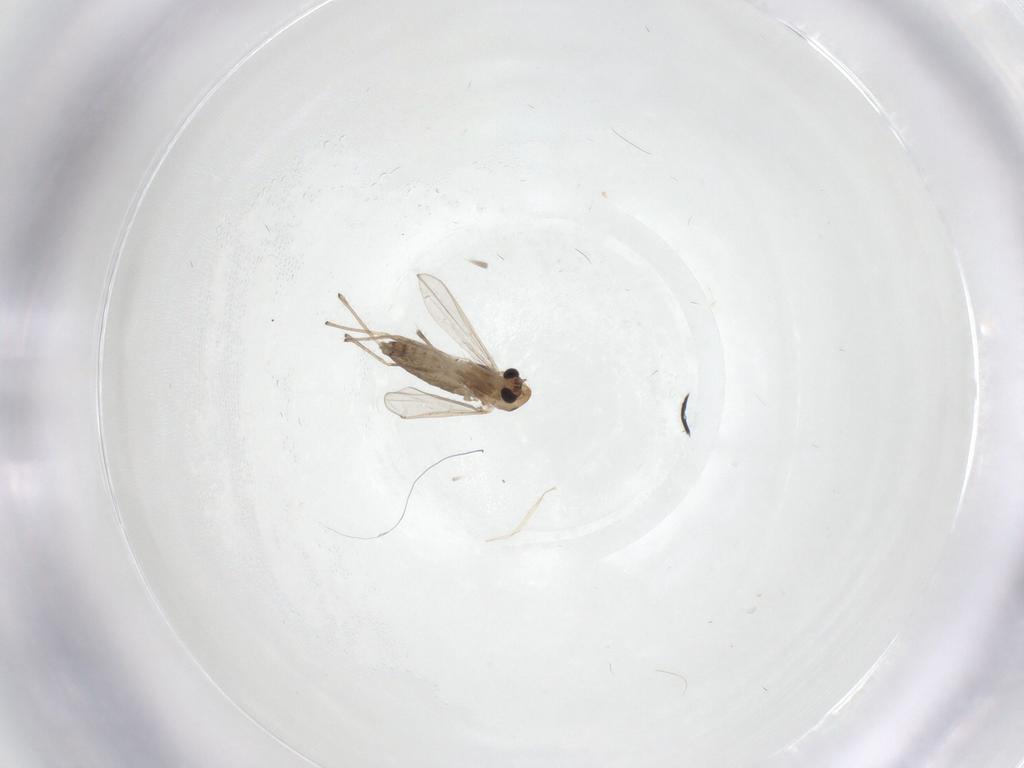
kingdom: Animalia
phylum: Arthropoda
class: Insecta
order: Diptera
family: Chironomidae
